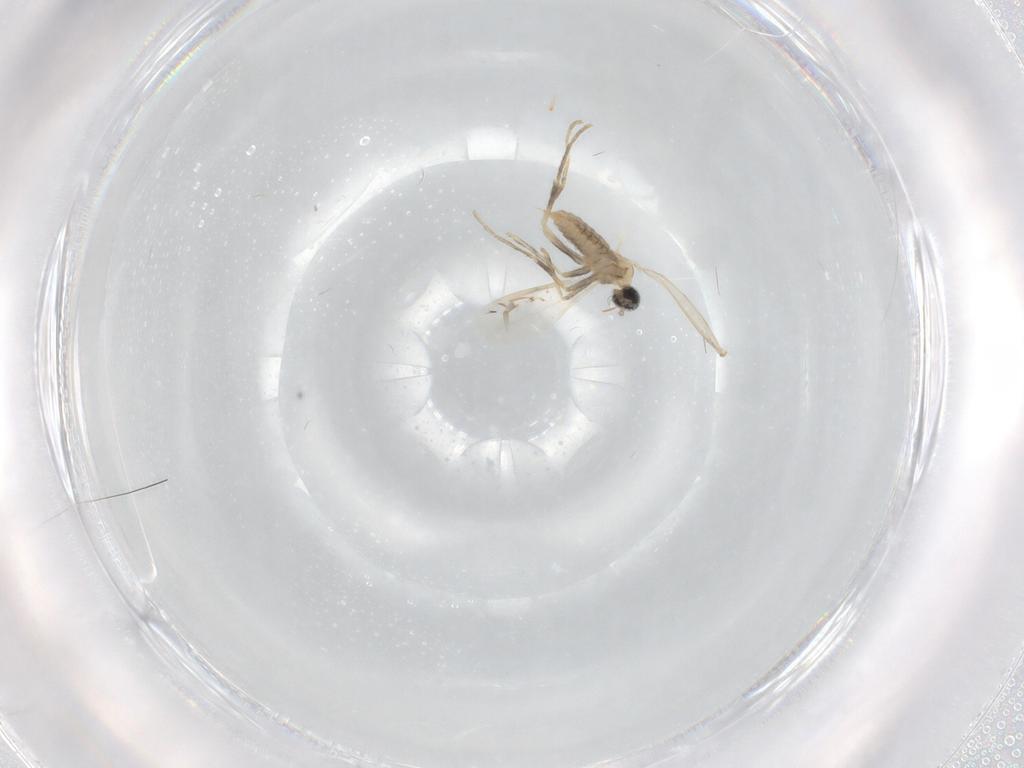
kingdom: Animalia
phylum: Arthropoda
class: Insecta
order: Diptera
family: Cecidomyiidae
